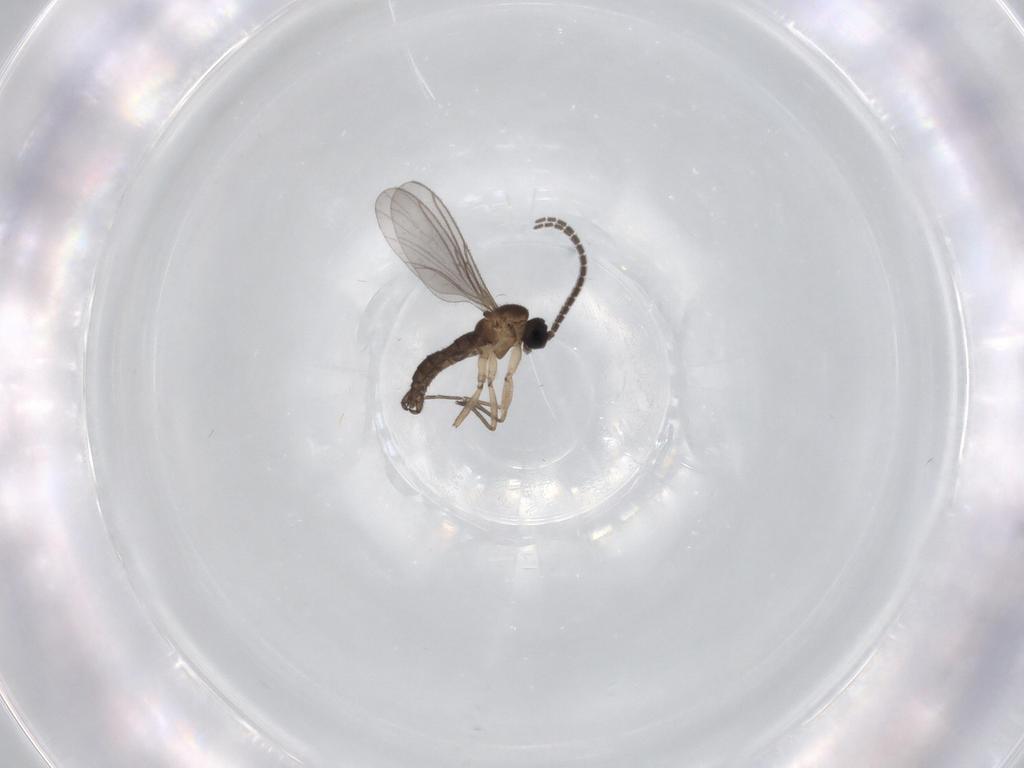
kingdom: Animalia
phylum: Arthropoda
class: Insecta
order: Diptera
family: Sciaridae
